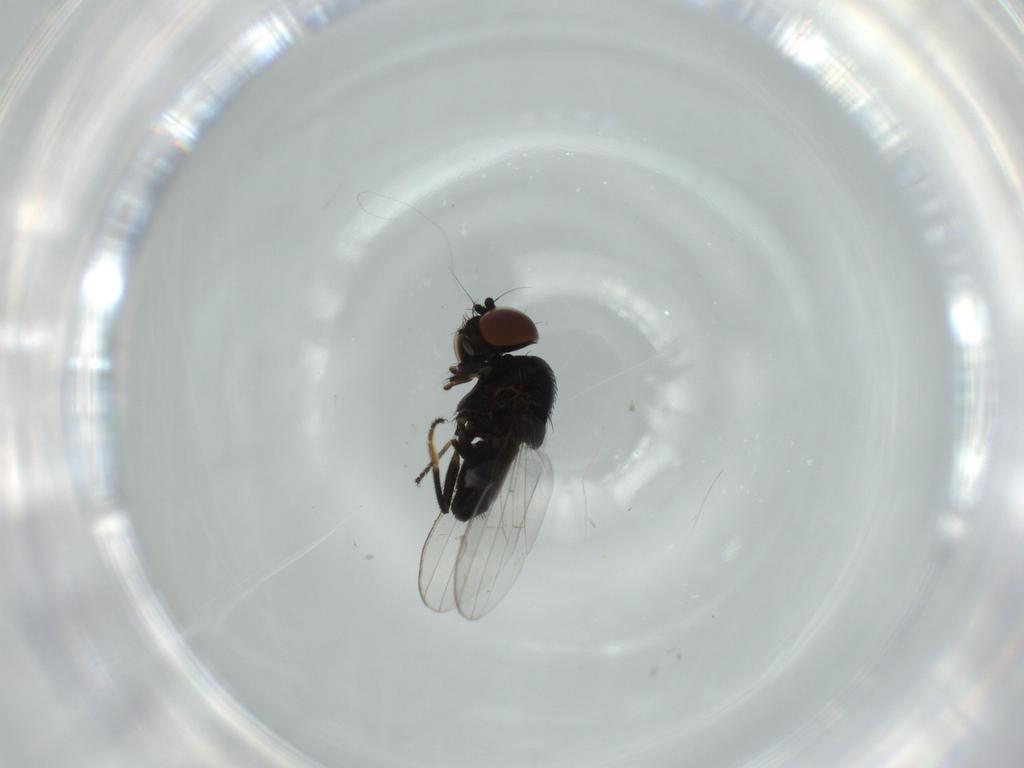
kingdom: Animalia
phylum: Arthropoda
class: Insecta
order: Diptera
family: Milichiidae
